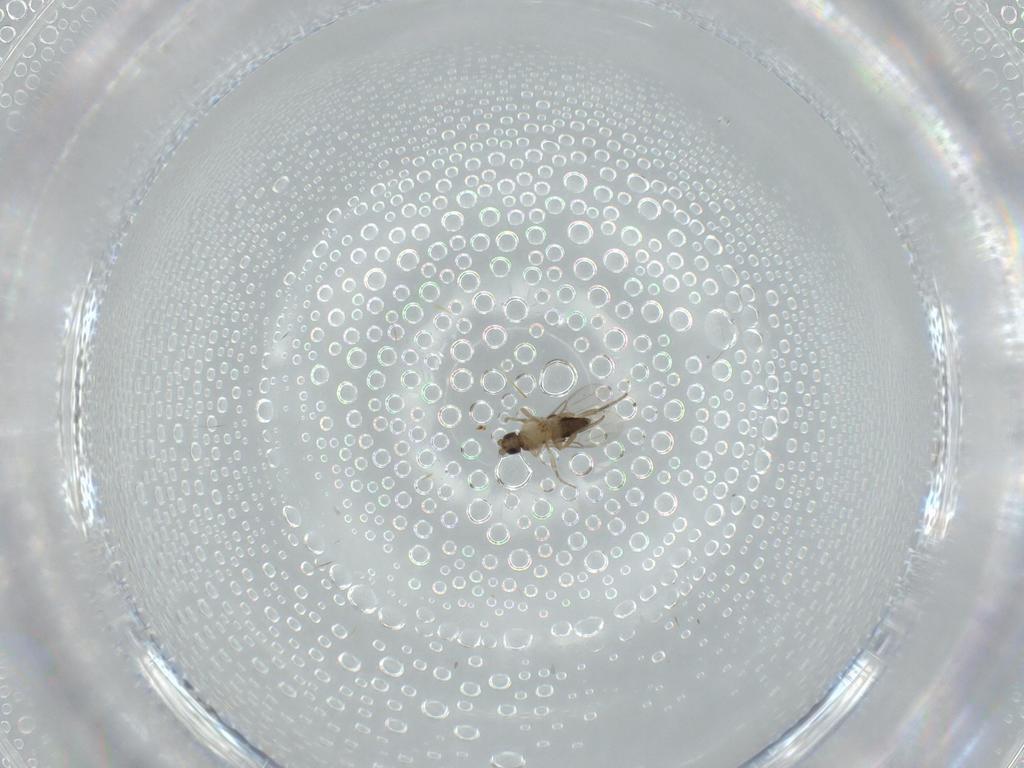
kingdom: Animalia
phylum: Arthropoda
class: Insecta
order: Diptera
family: Phoridae
